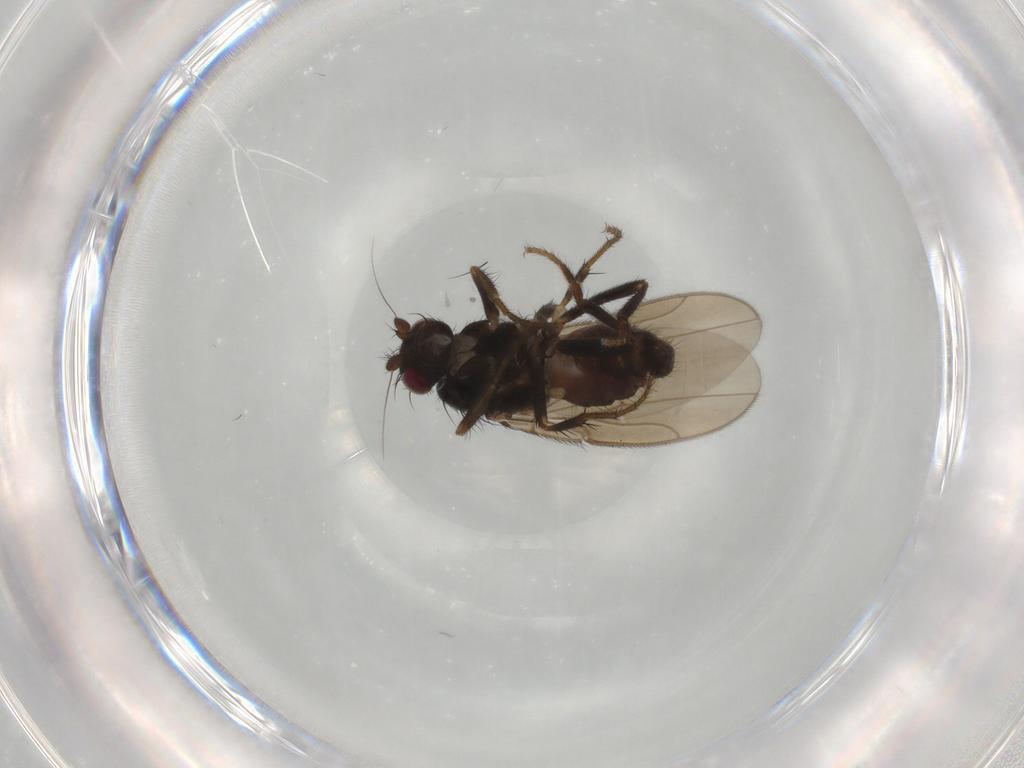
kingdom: Animalia
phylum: Arthropoda
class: Insecta
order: Diptera
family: Sphaeroceridae
